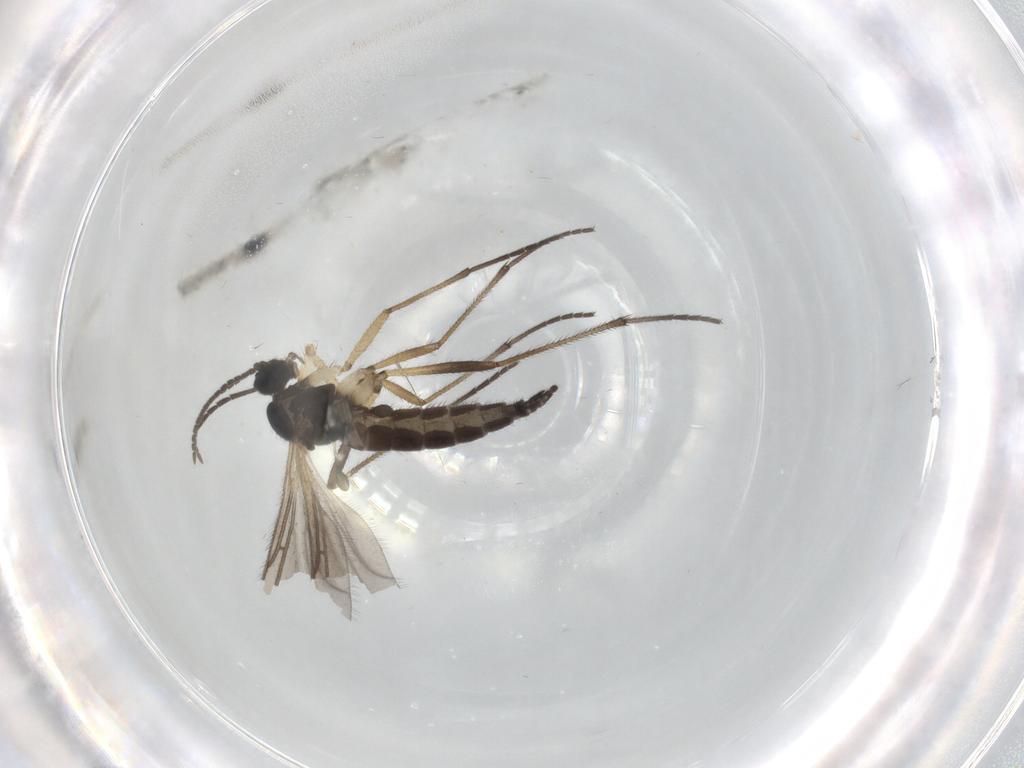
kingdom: Animalia
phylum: Arthropoda
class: Insecta
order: Diptera
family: Sciaridae
